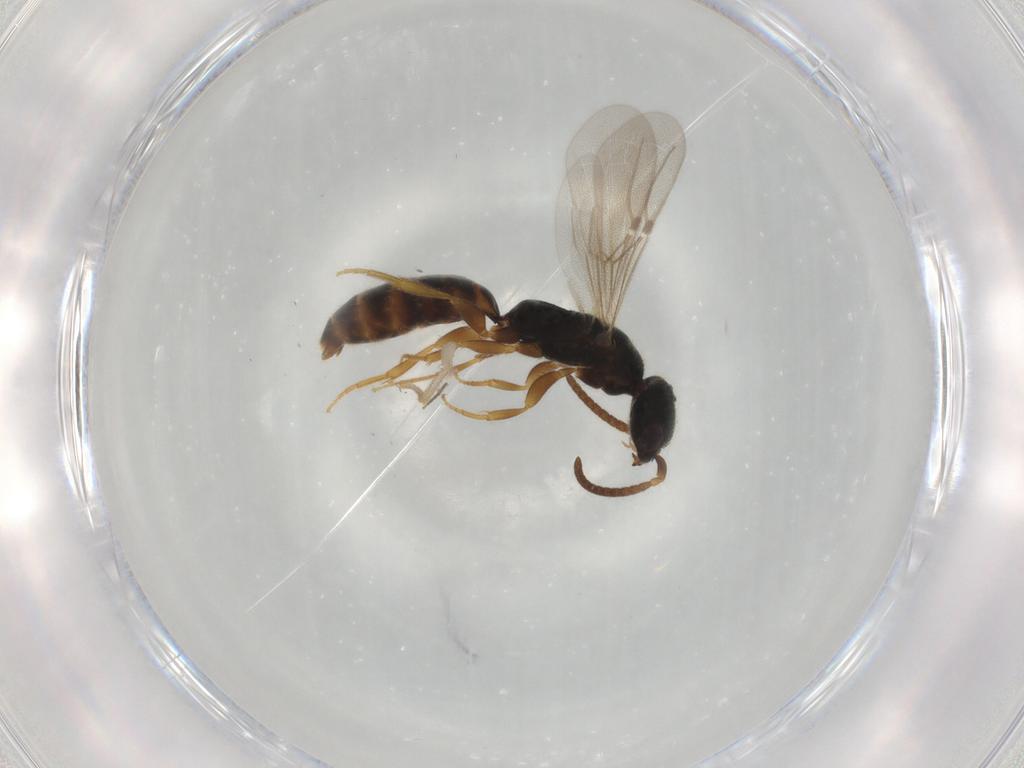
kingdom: Animalia
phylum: Arthropoda
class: Insecta
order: Hymenoptera
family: Bethylidae
